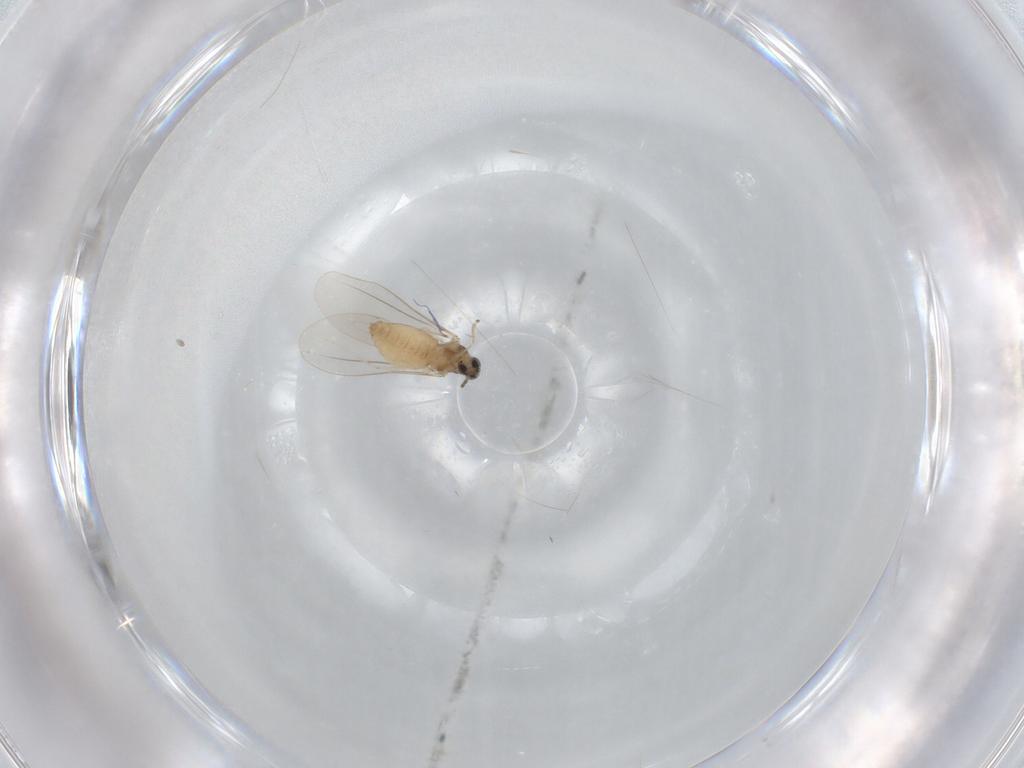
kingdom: Animalia
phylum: Arthropoda
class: Insecta
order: Diptera
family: Cecidomyiidae
